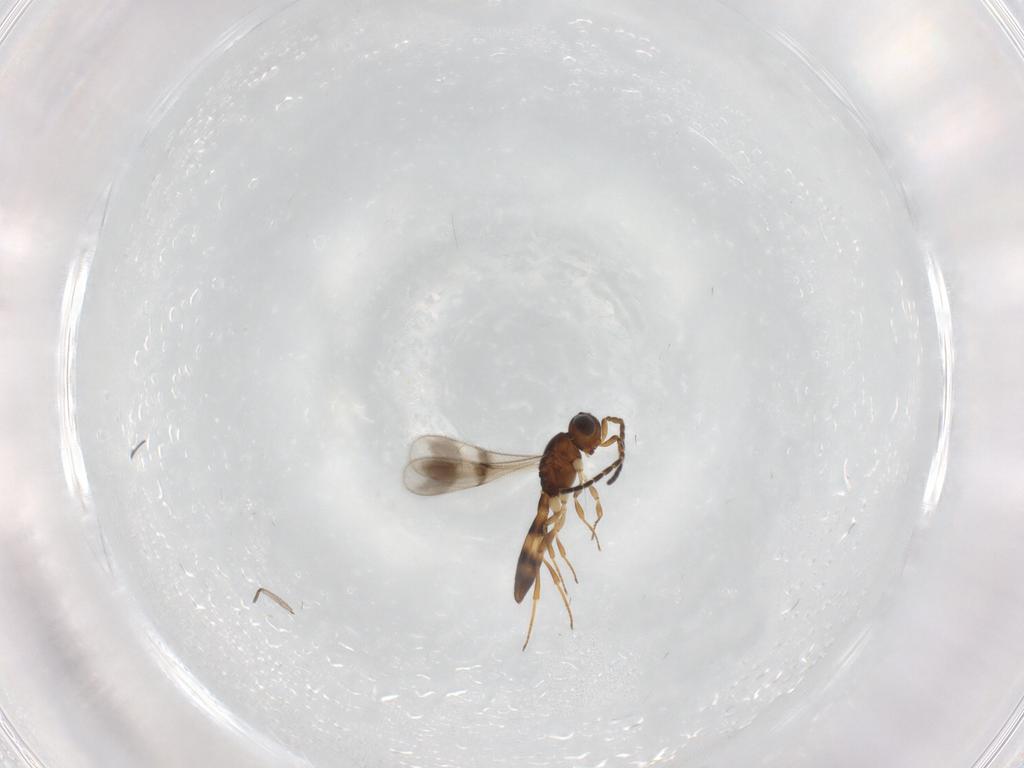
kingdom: Animalia
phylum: Arthropoda
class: Insecta
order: Hymenoptera
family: Scelionidae
